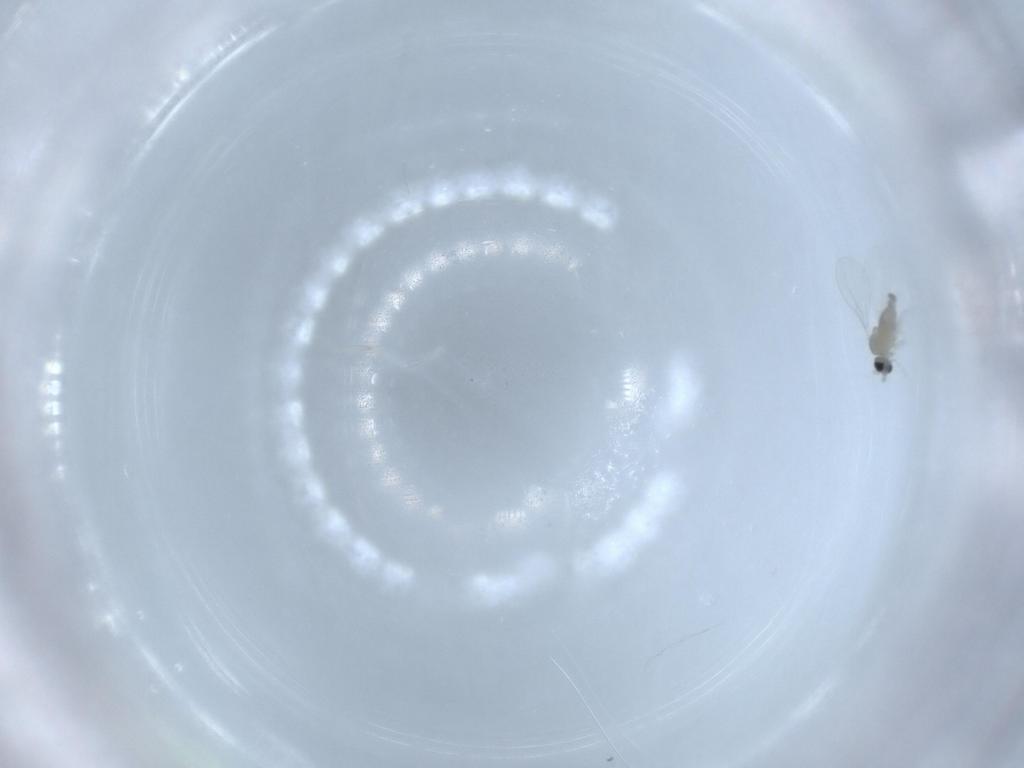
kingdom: Animalia
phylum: Arthropoda
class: Insecta
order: Diptera
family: Cecidomyiidae
